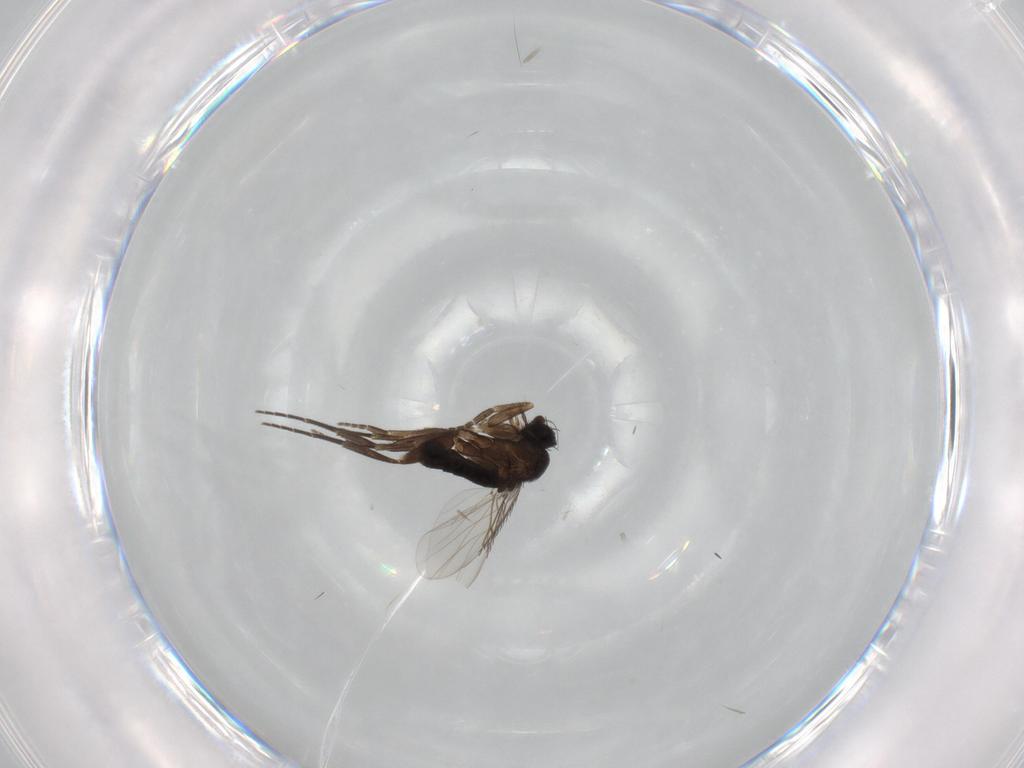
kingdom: Animalia
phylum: Arthropoda
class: Insecta
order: Diptera
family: Phoridae
